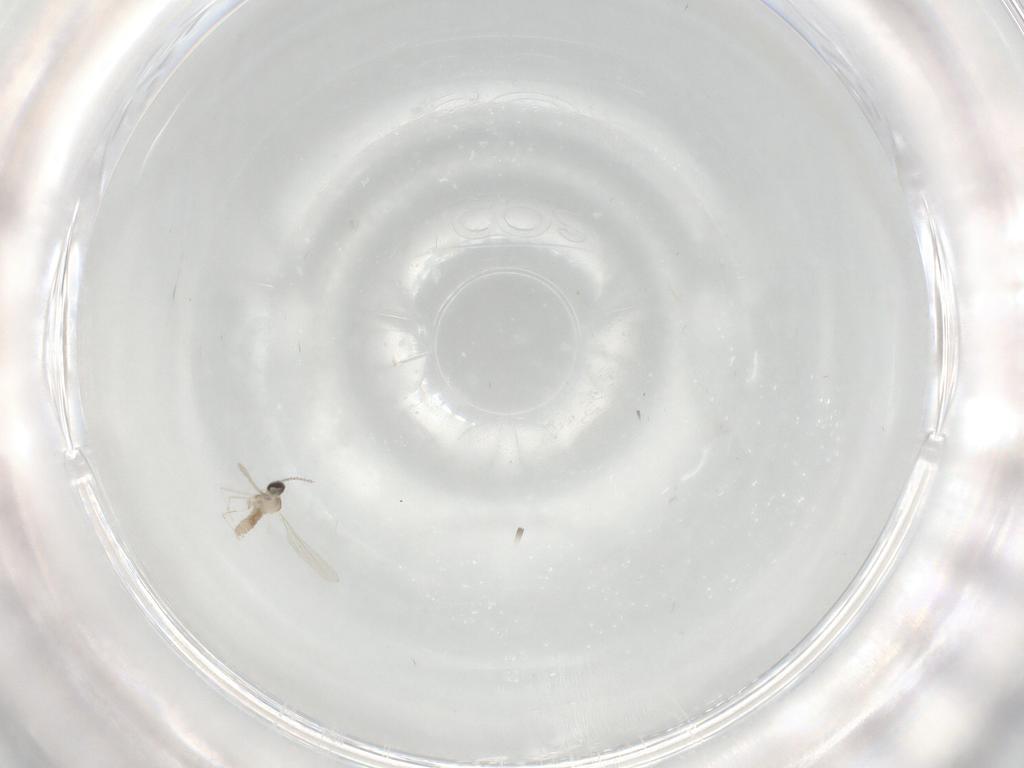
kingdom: Animalia
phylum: Arthropoda
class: Insecta
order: Diptera
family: Cecidomyiidae
